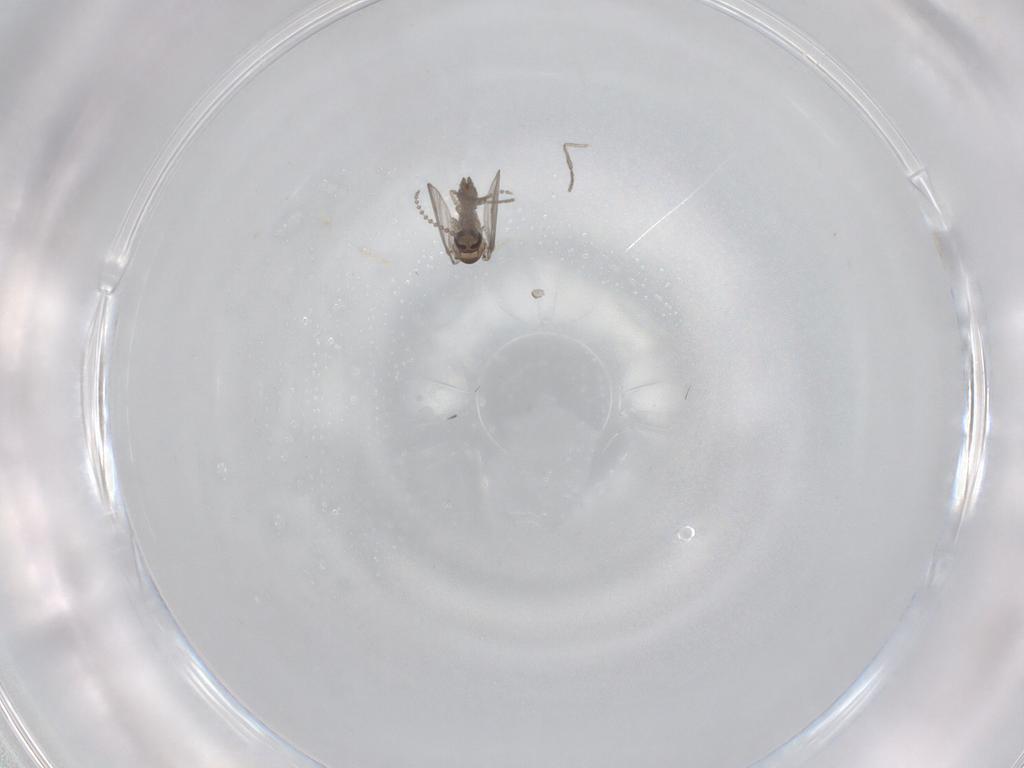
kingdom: Animalia
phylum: Arthropoda
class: Insecta
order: Diptera
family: Psychodidae
